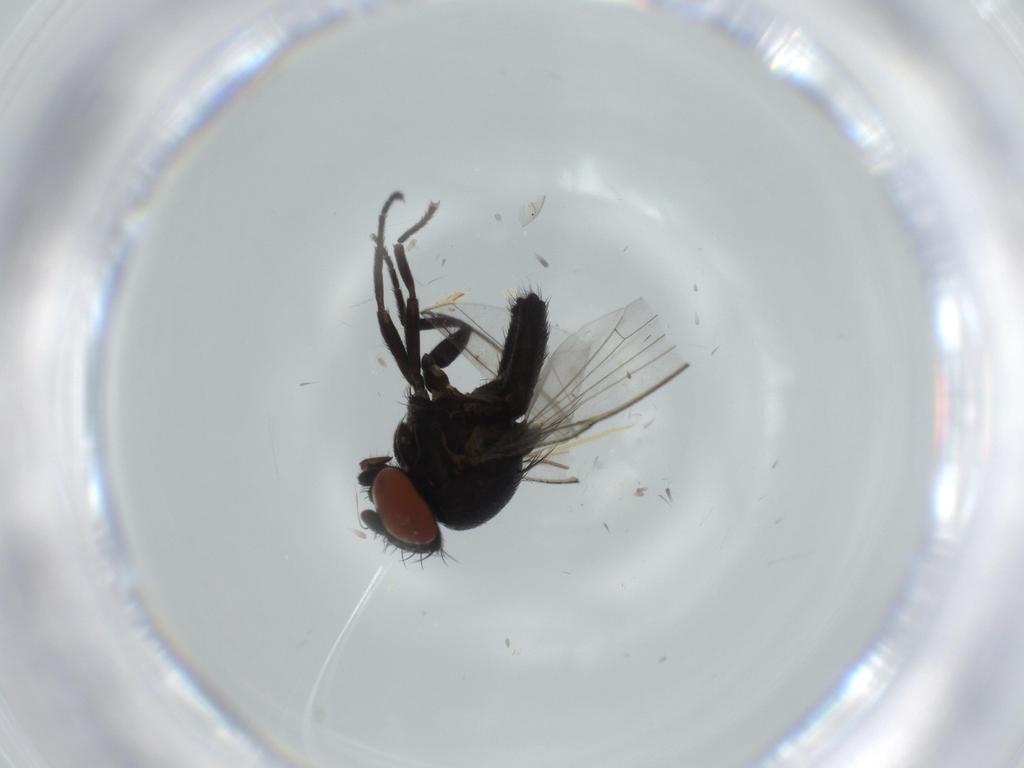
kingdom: Animalia
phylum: Arthropoda
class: Insecta
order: Diptera
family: Milichiidae
